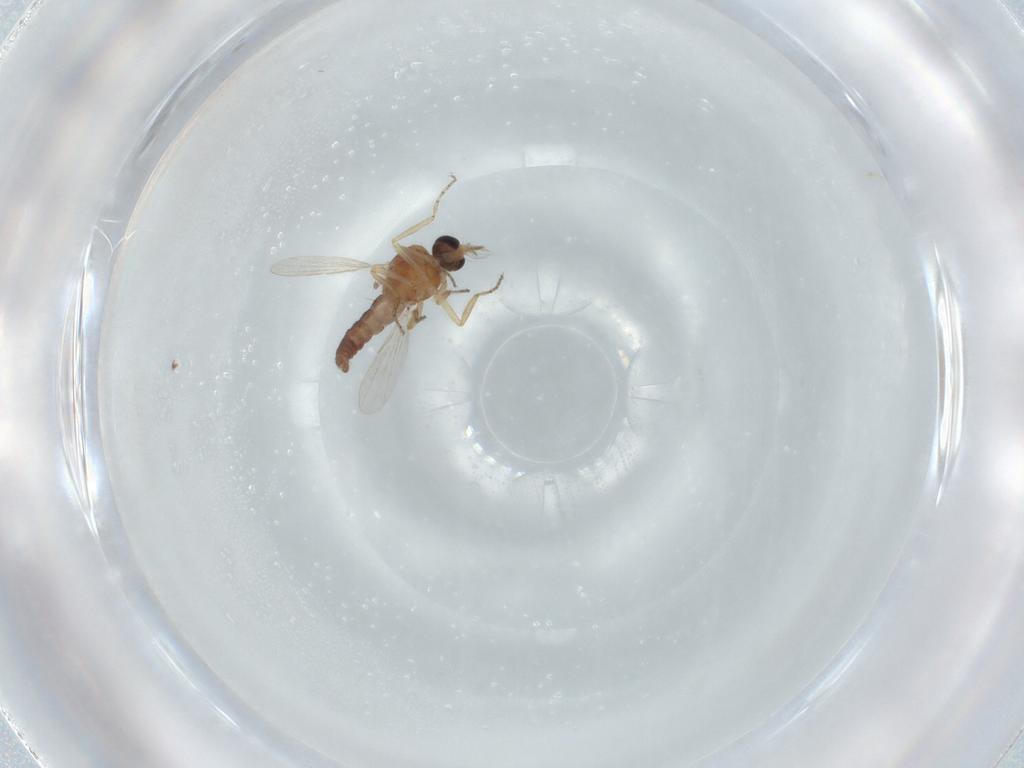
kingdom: Animalia
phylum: Arthropoda
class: Insecta
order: Diptera
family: Ceratopogonidae
